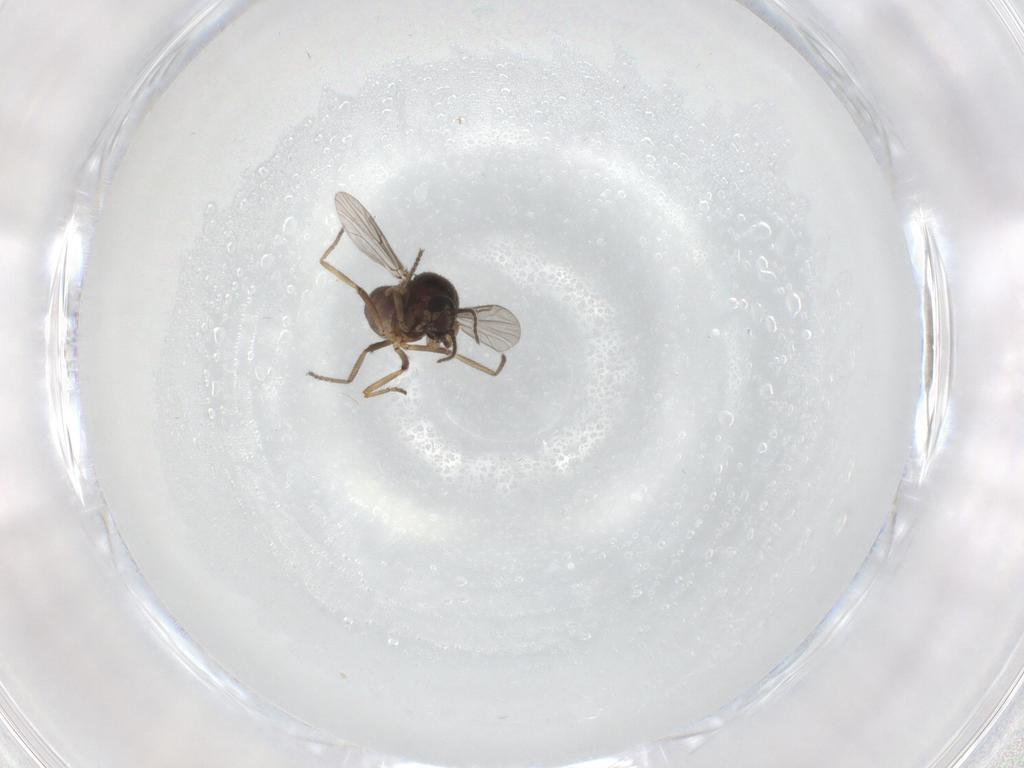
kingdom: Animalia
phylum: Arthropoda
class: Insecta
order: Diptera
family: Ceratopogonidae
